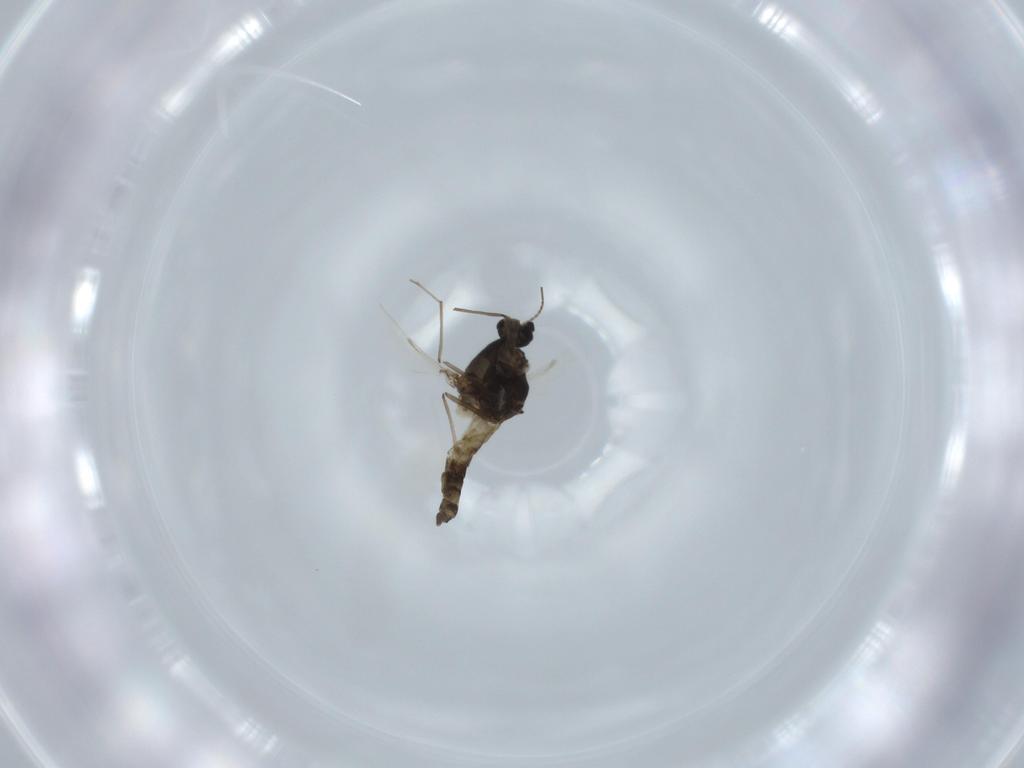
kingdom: Animalia
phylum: Arthropoda
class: Insecta
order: Diptera
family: Chironomidae
